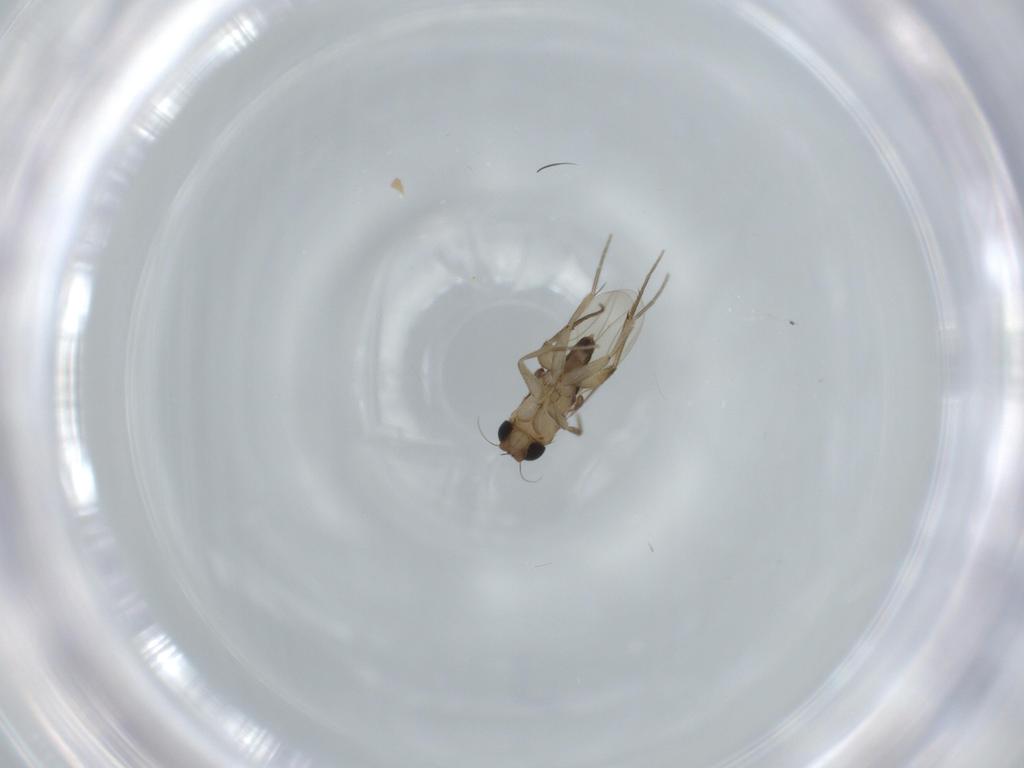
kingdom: Animalia
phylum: Arthropoda
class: Insecta
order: Diptera
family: Phoridae
